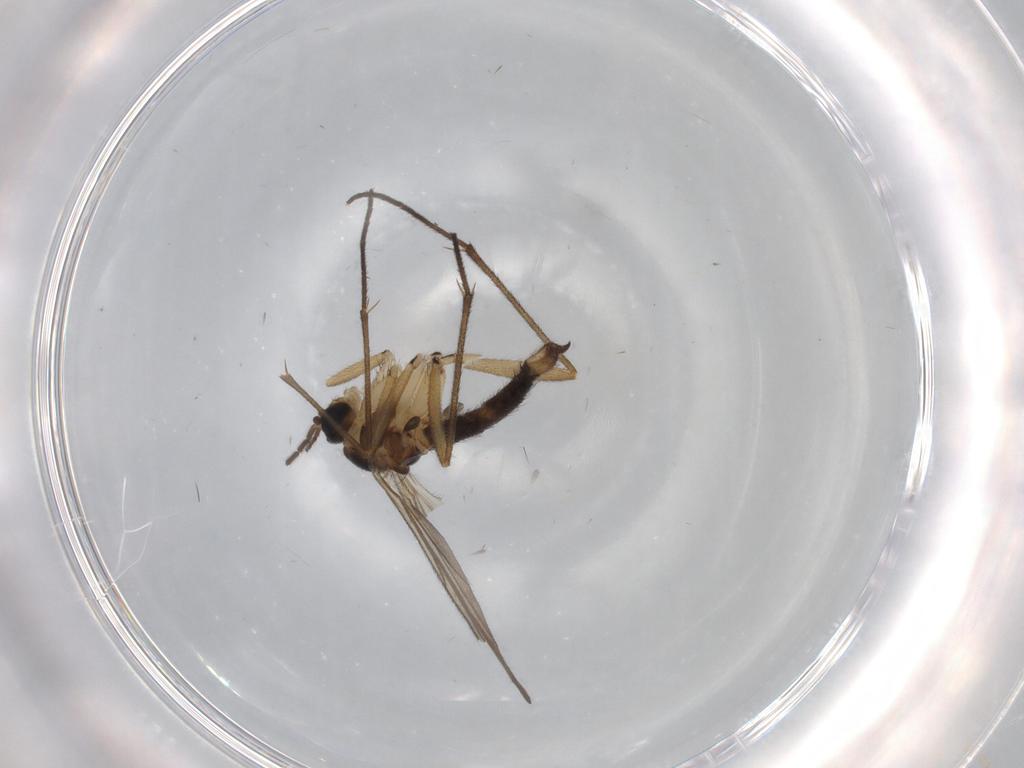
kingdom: Animalia
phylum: Arthropoda
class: Insecta
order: Diptera
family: Sciaridae
